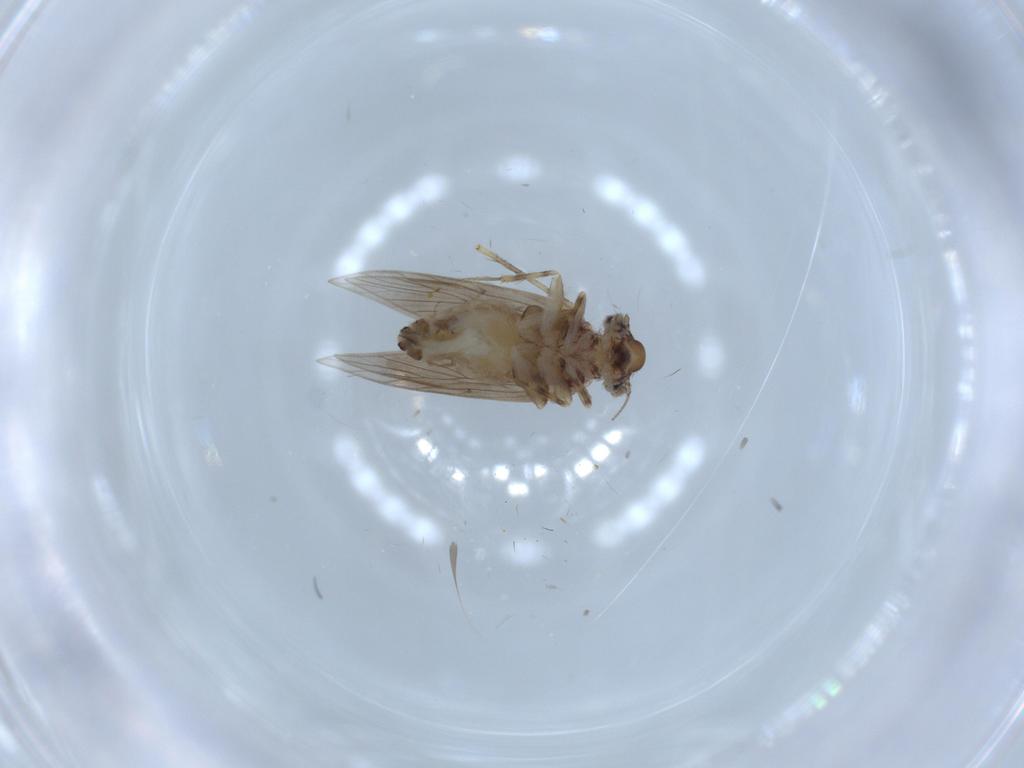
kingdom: Animalia
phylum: Arthropoda
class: Insecta
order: Psocodea
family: Lepidopsocidae
